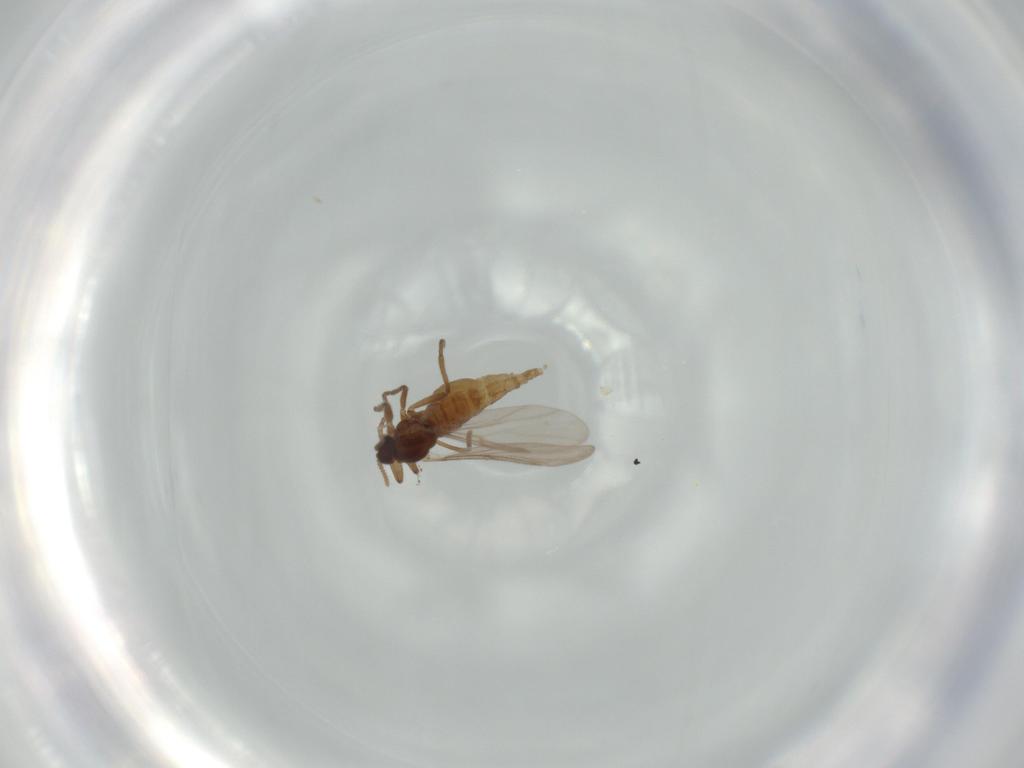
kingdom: Animalia
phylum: Arthropoda
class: Insecta
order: Diptera
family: Cecidomyiidae
